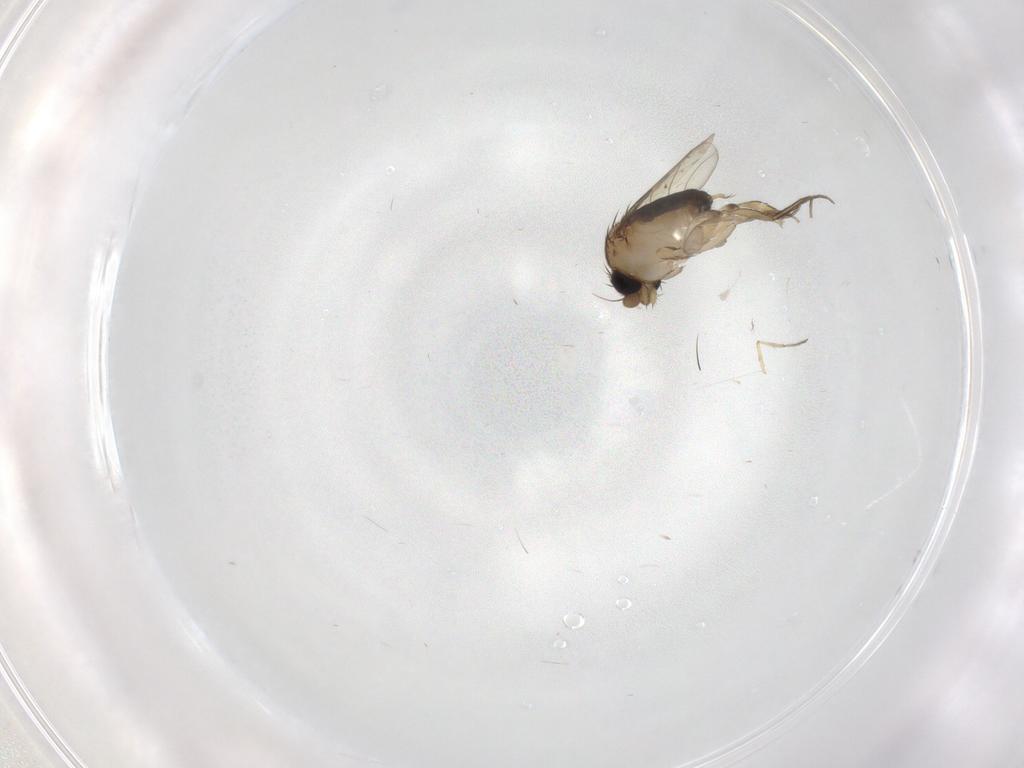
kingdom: Animalia
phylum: Arthropoda
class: Insecta
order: Diptera
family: Phoridae
